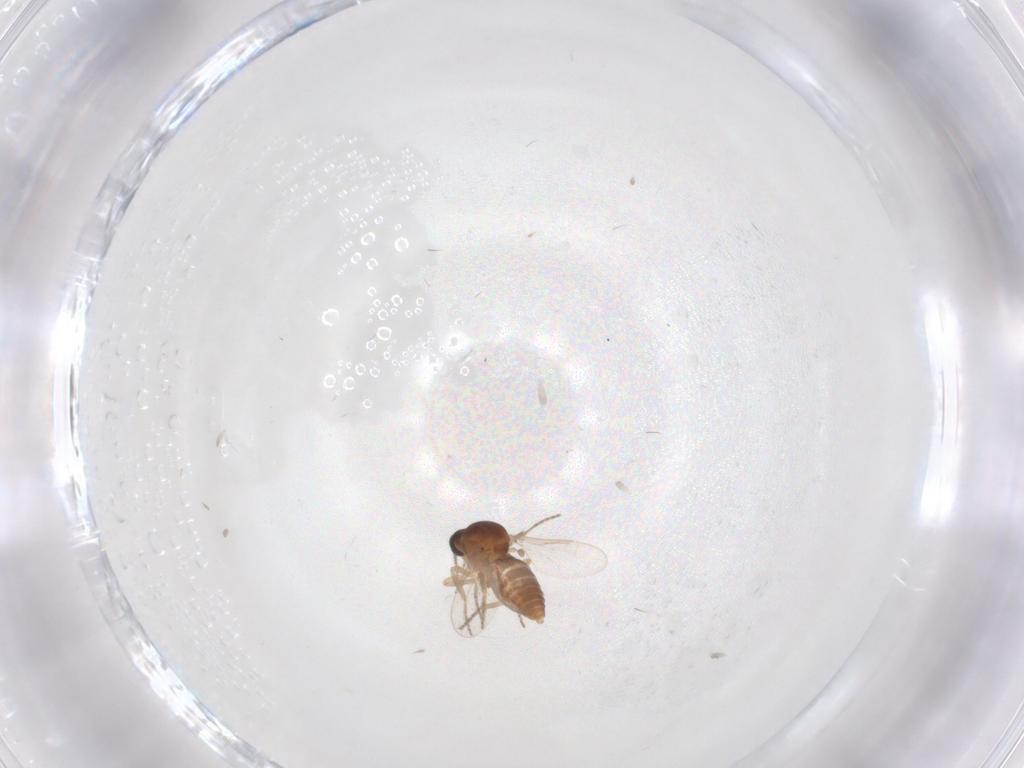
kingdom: Animalia
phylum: Arthropoda
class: Insecta
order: Diptera
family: Ceratopogonidae
